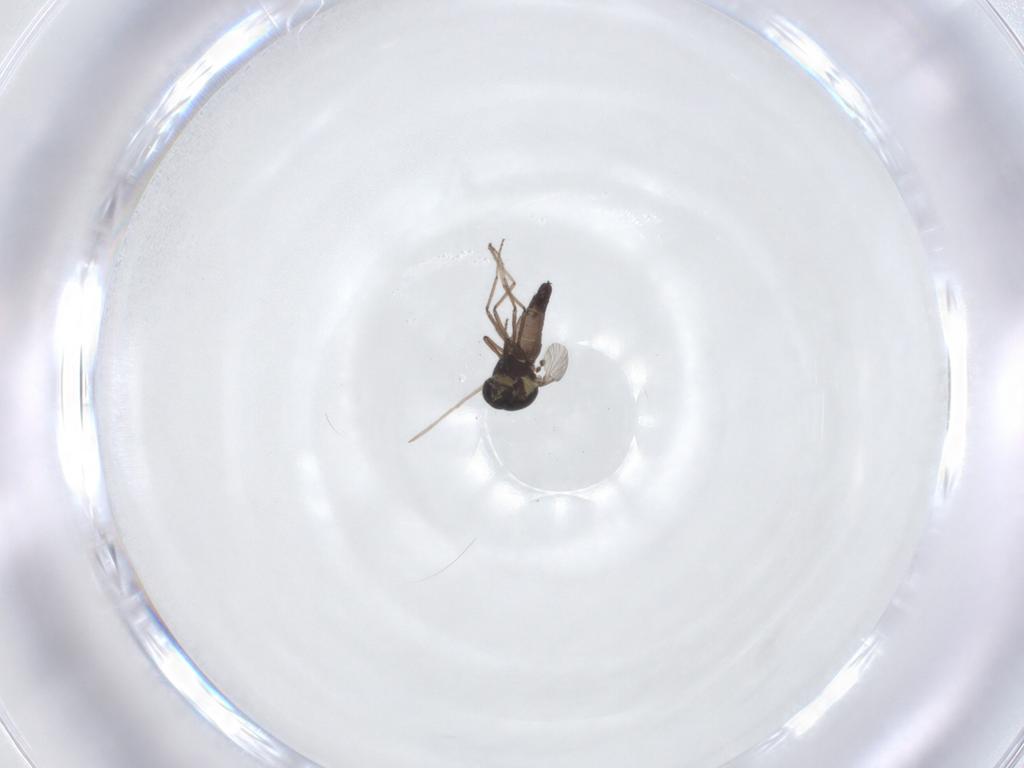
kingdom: Animalia
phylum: Arthropoda
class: Insecta
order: Diptera
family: Ceratopogonidae
